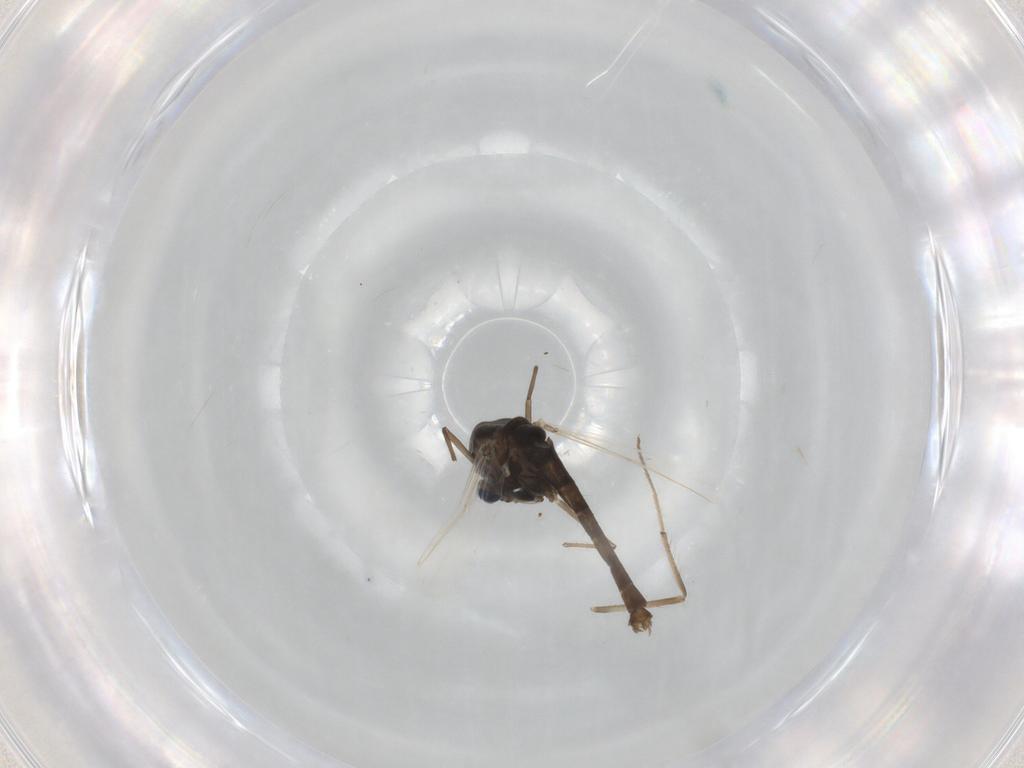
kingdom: Animalia
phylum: Arthropoda
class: Insecta
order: Diptera
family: Chironomidae
